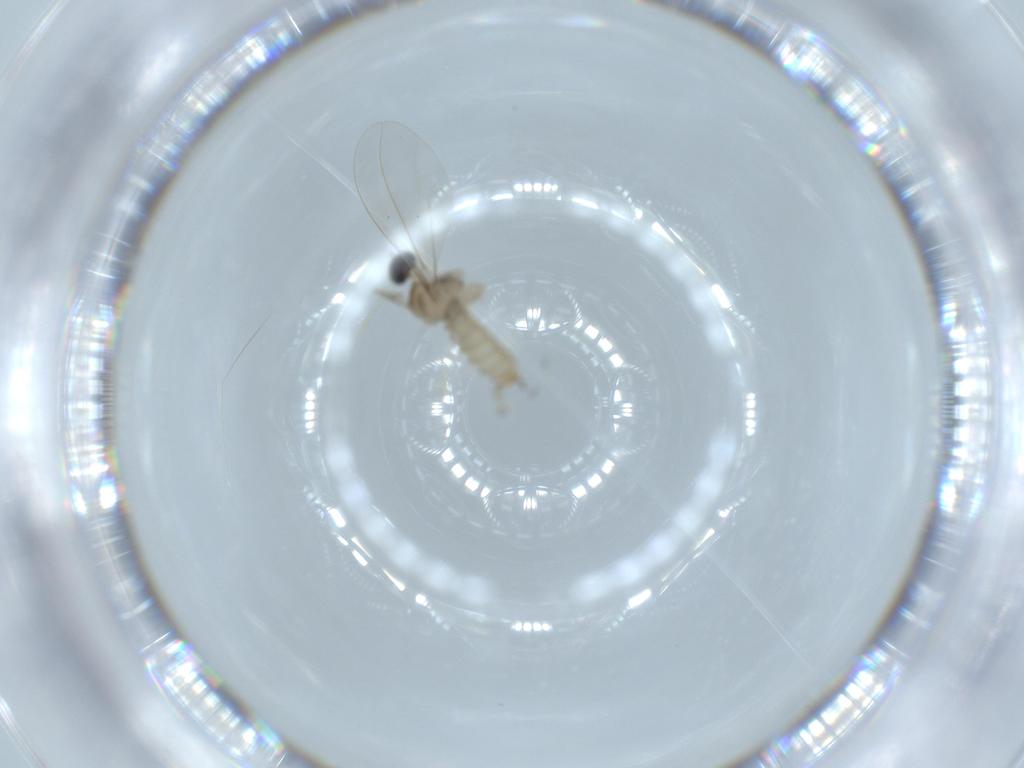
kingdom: Animalia
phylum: Arthropoda
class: Insecta
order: Diptera
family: Cecidomyiidae
